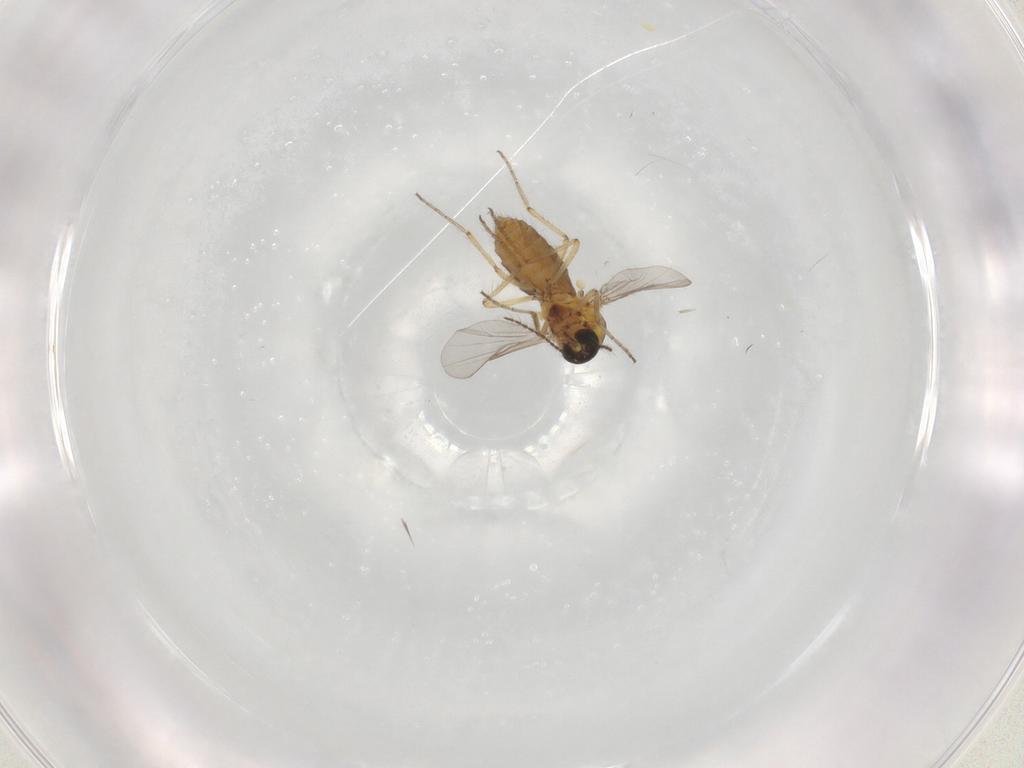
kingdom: Animalia
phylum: Arthropoda
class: Insecta
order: Diptera
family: Ceratopogonidae
